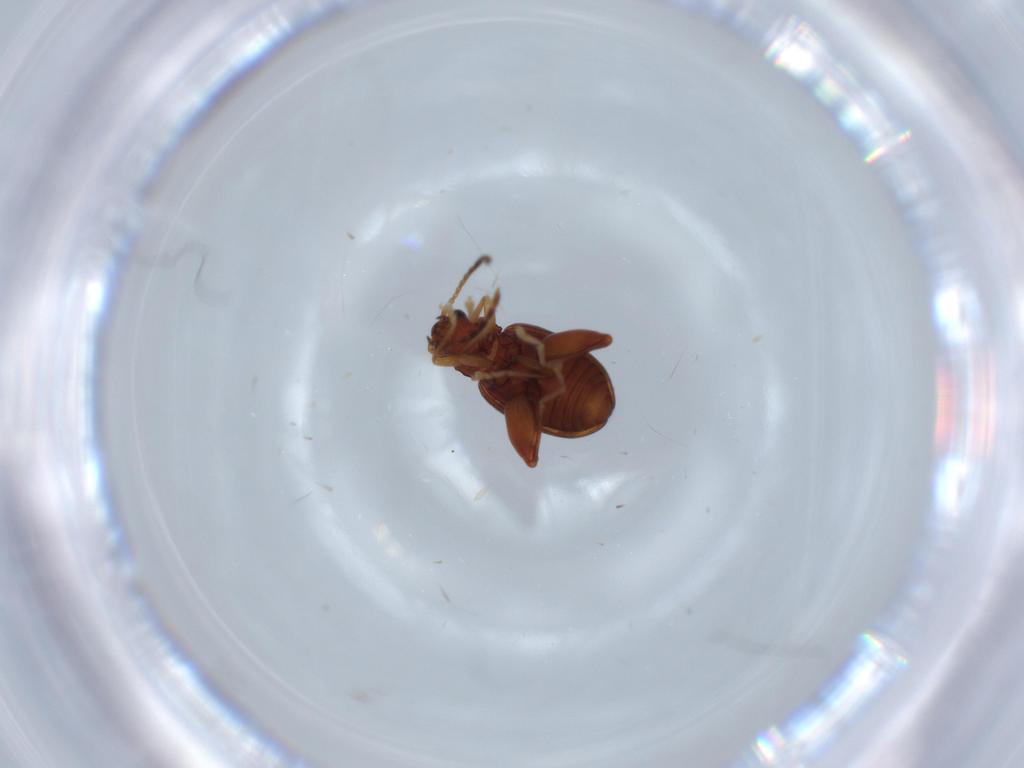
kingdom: Animalia
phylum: Arthropoda
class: Insecta
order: Coleoptera
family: Chrysomelidae
